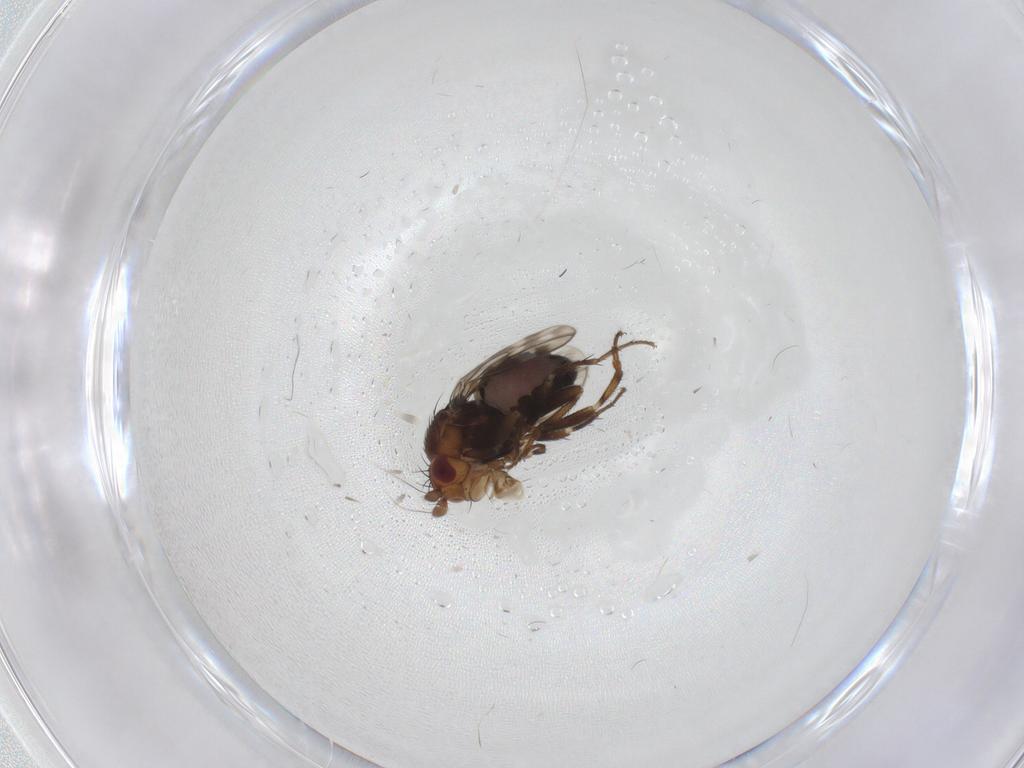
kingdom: Animalia
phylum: Arthropoda
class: Insecta
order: Diptera
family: Sphaeroceridae
